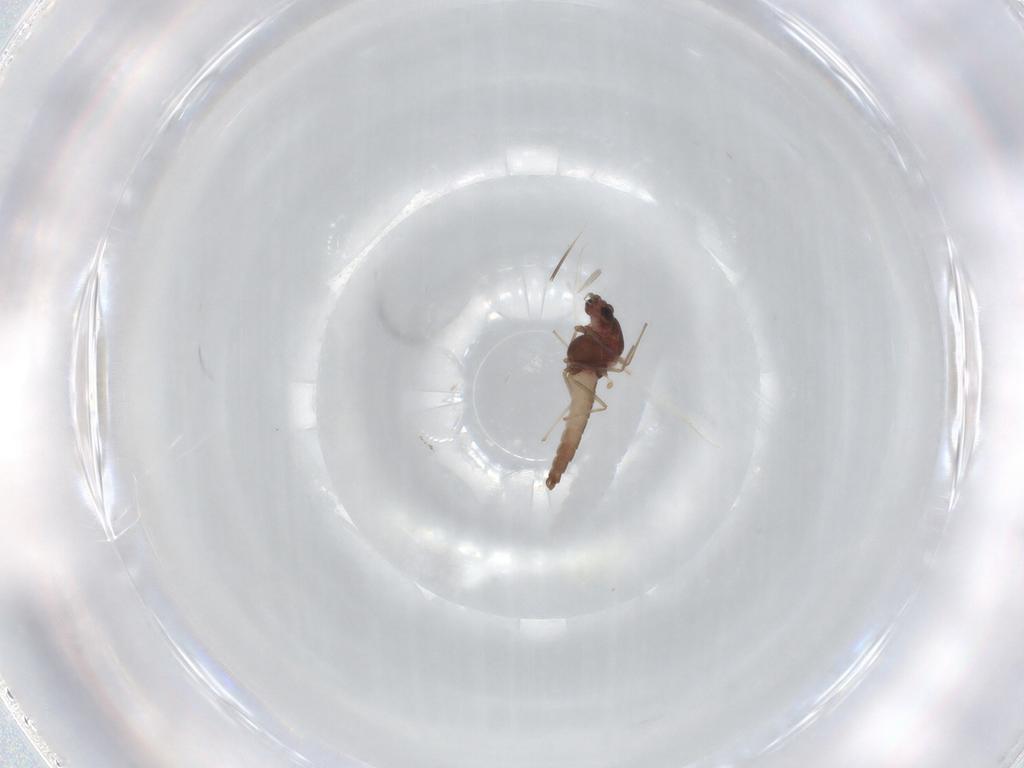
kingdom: Animalia
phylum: Arthropoda
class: Insecta
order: Diptera
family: Chironomidae
